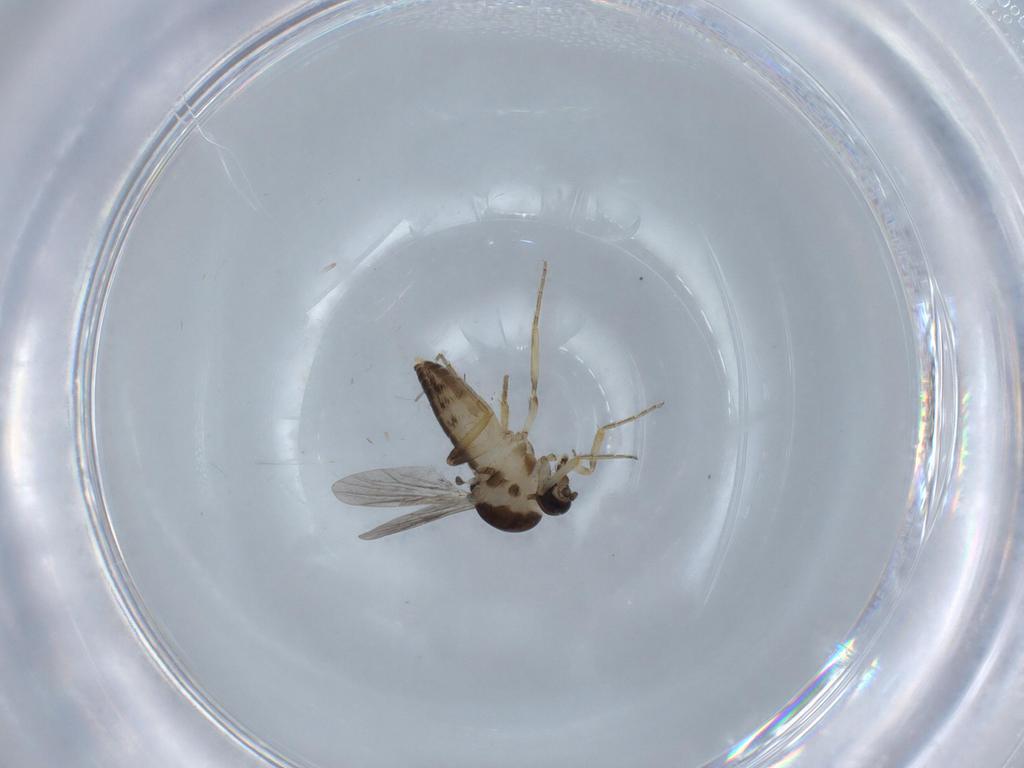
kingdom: Animalia
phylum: Arthropoda
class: Insecta
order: Diptera
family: Ceratopogonidae
